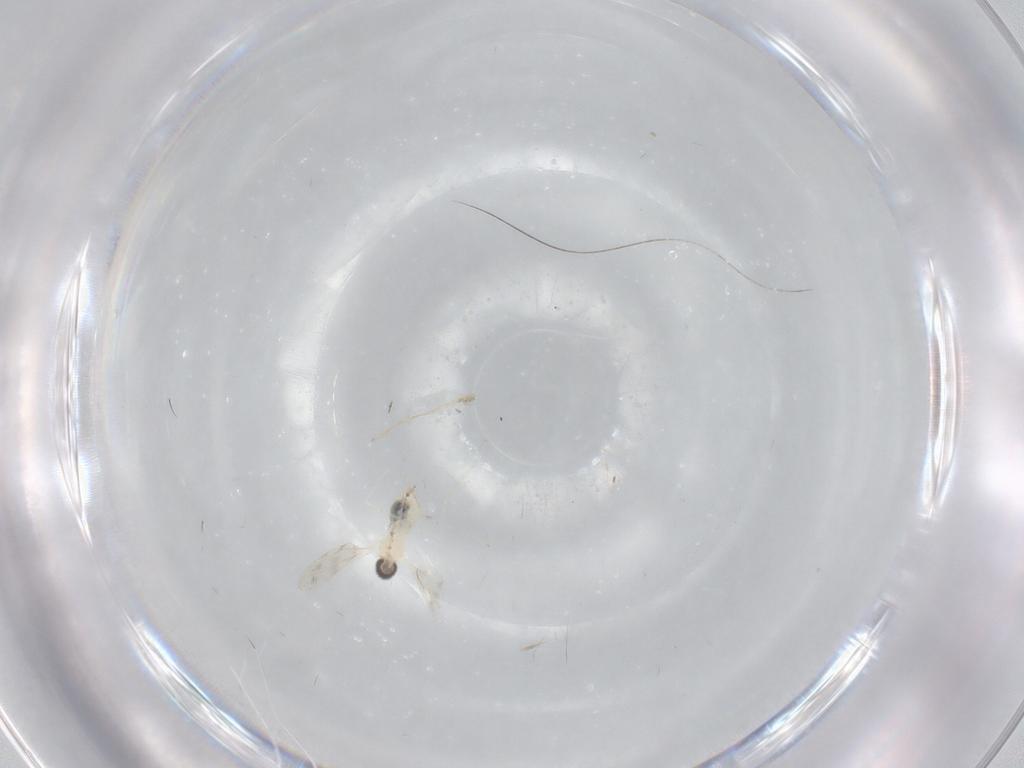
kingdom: Animalia
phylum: Arthropoda
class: Insecta
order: Diptera
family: Cecidomyiidae
